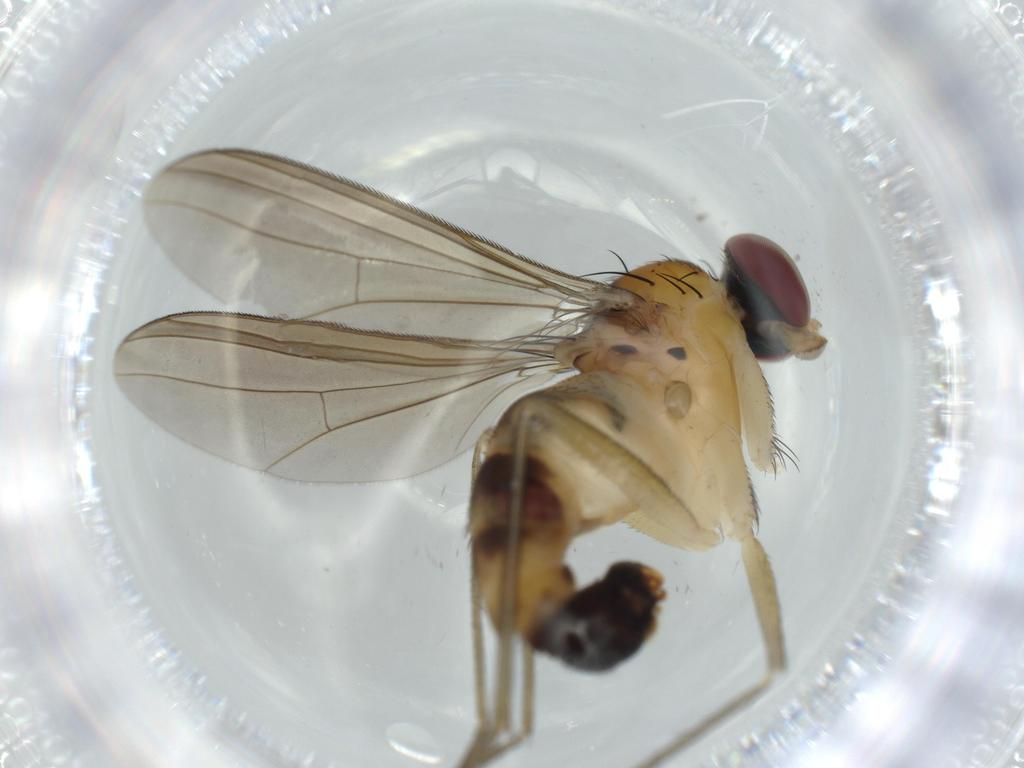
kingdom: Animalia
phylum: Arthropoda
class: Insecta
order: Diptera
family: Dolichopodidae
